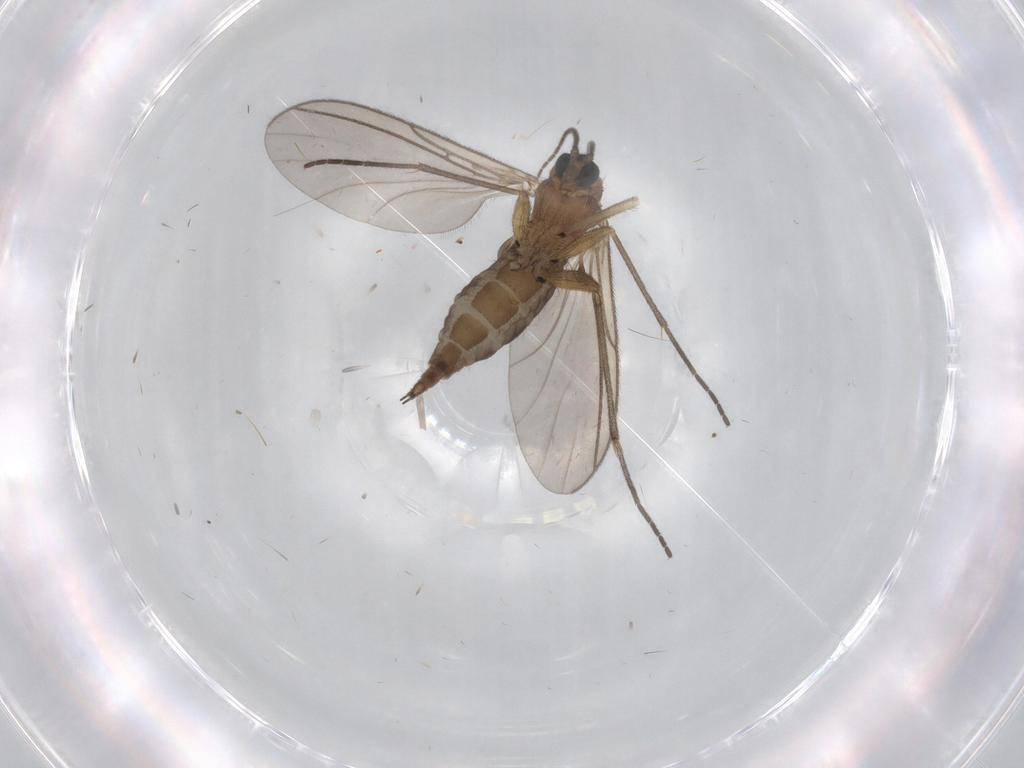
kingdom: Animalia
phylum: Arthropoda
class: Insecta
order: Diptera
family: Sciaridae
